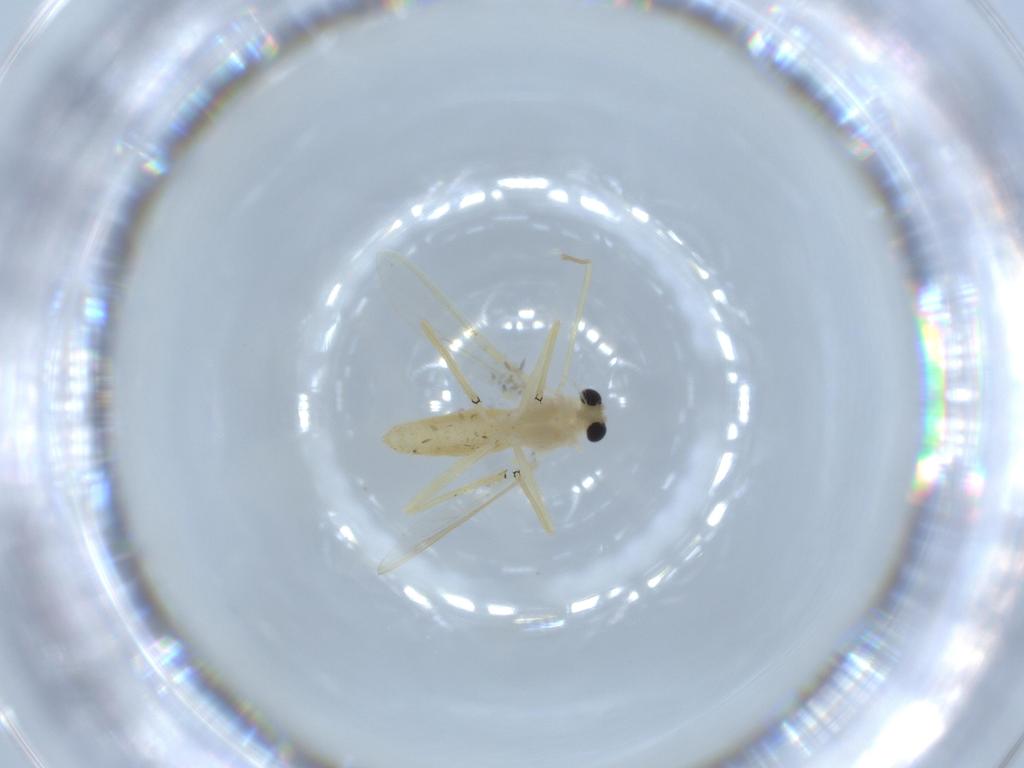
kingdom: Animalia
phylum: Arthropoda
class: Insecta
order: Diptera
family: Chironomidae
